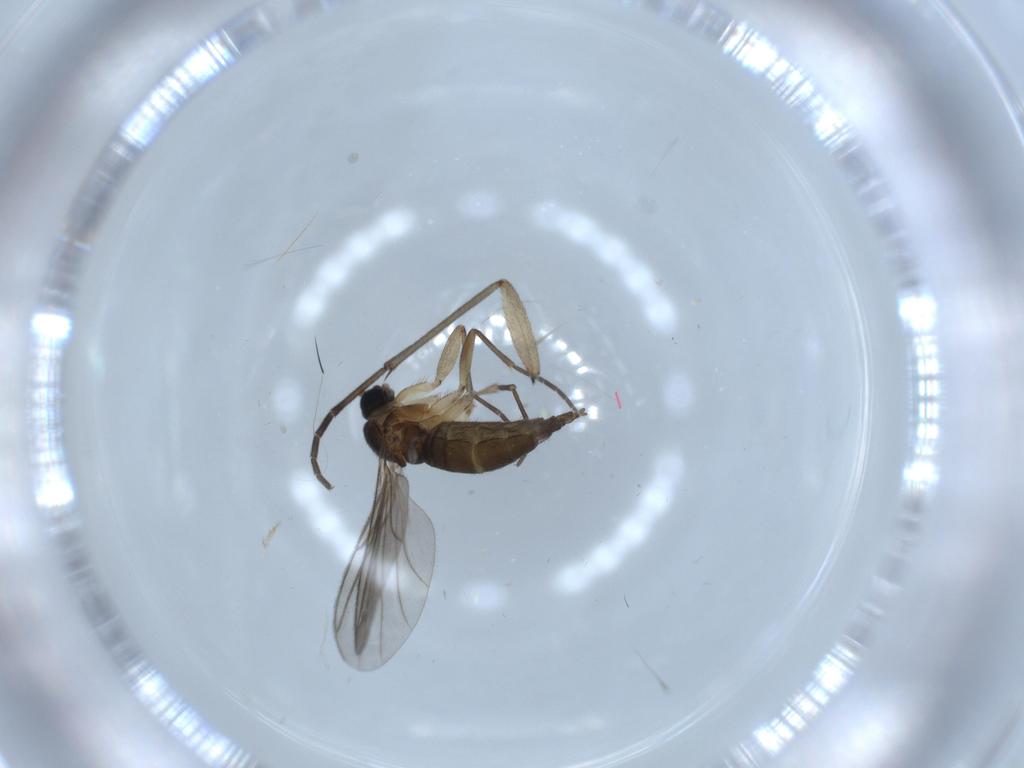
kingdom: Animalia
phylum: Arthropoda
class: Insecta
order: Diptera
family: Sciaridae
